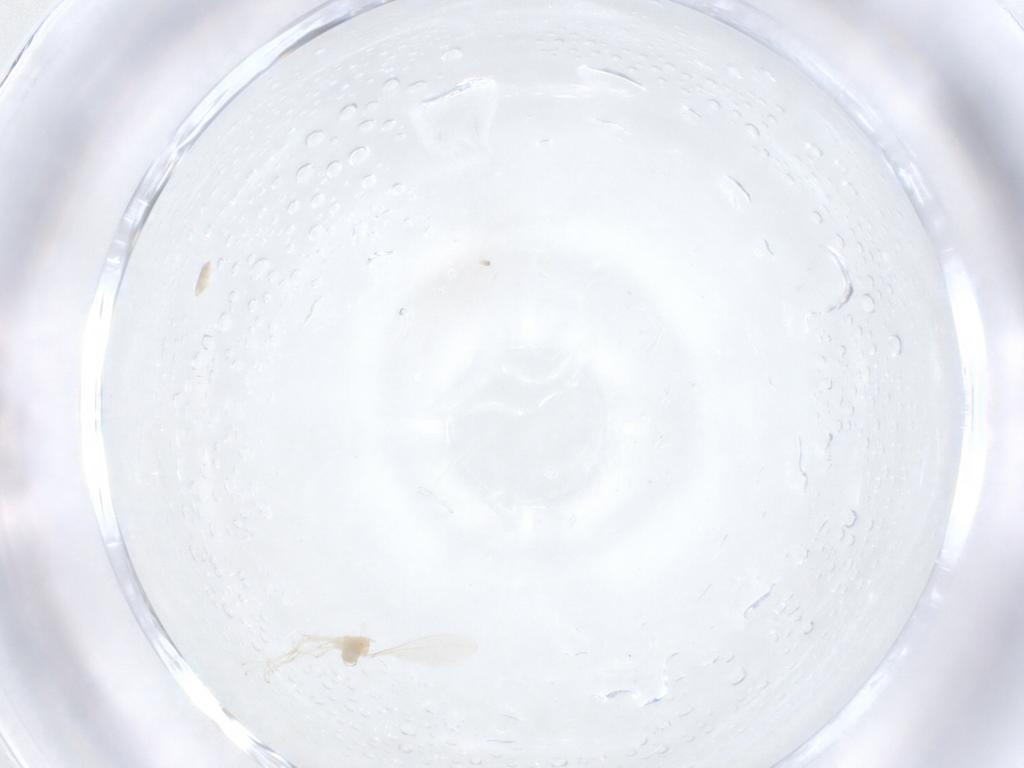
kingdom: Animalia
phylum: Arthropoda
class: Insecta
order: Diptera
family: Cecidomyiidae
